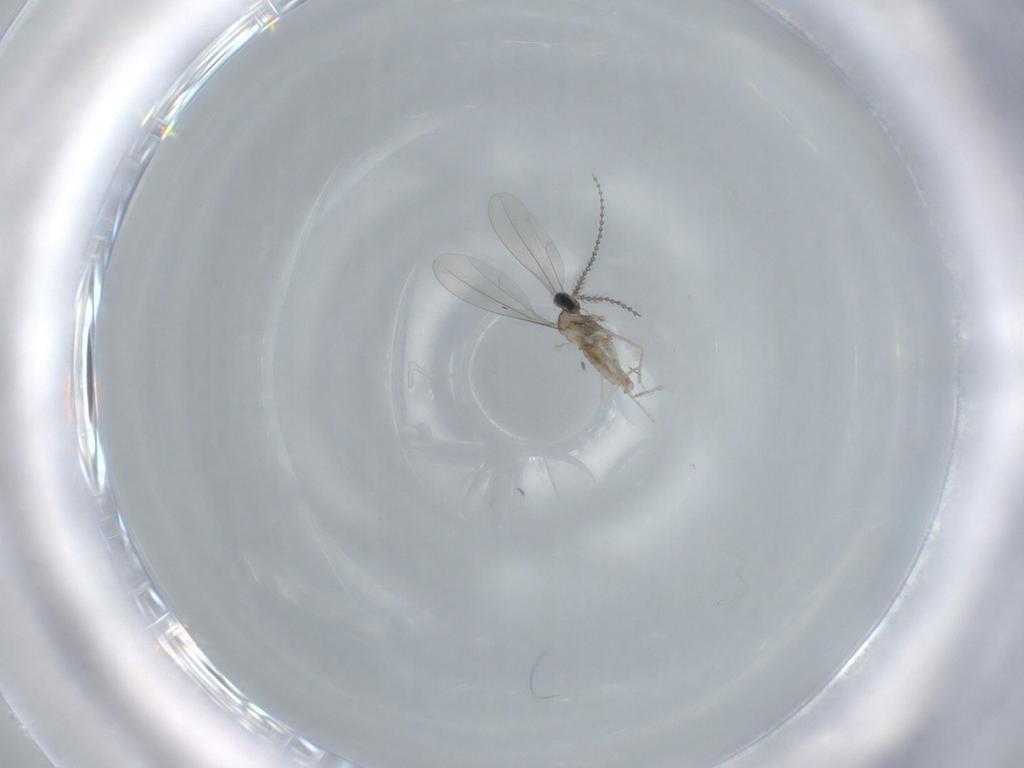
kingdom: Animalia
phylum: Arthropoda
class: Insecta
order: Diptera
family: Cecidomyiidae
